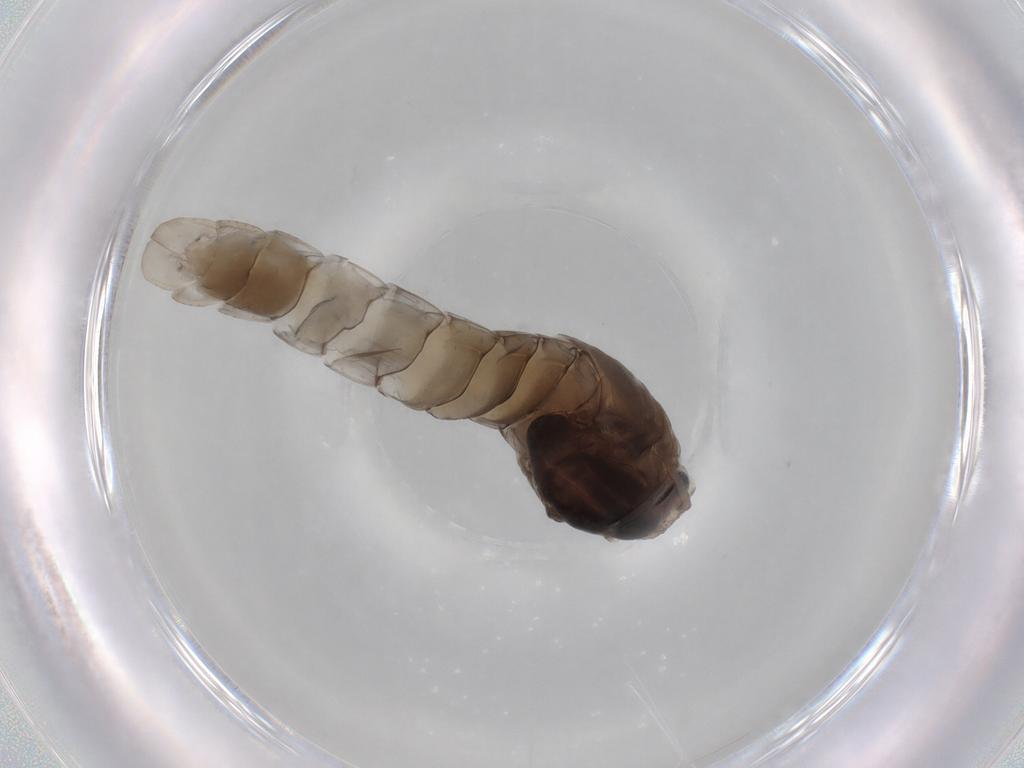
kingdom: Animalia
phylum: Arthropoda
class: Insecta
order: Diptera
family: Chironomidae
